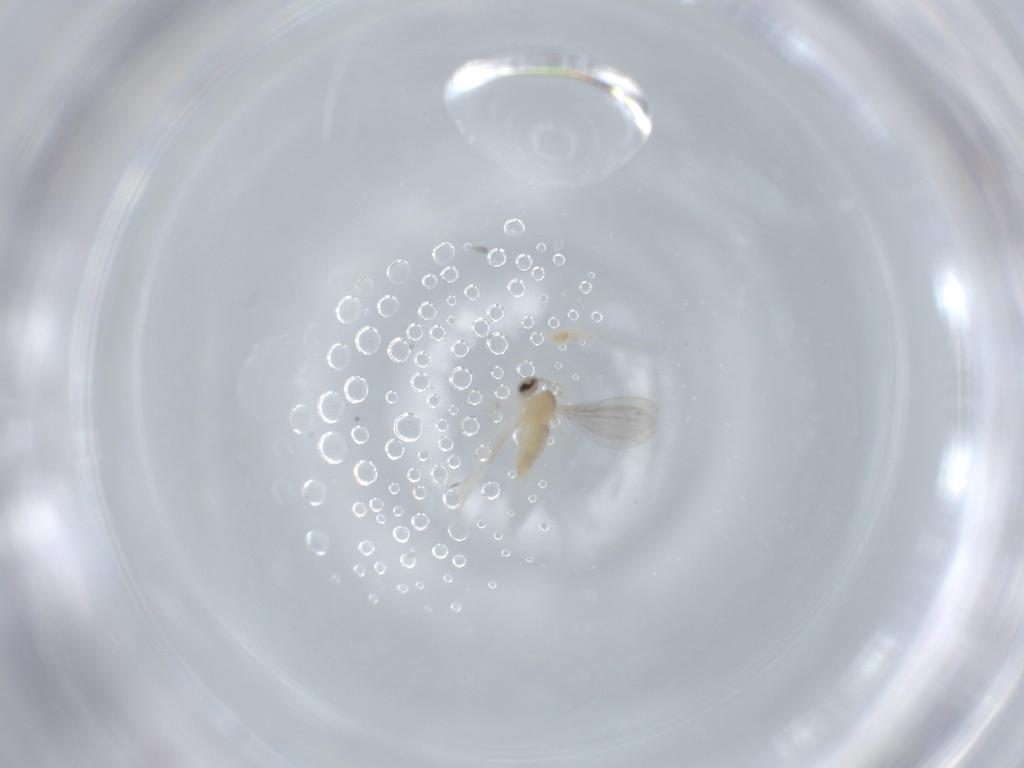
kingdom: Animalia
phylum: Arthropoda
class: Insecta
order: Diptera
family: Cecidomyiidae
